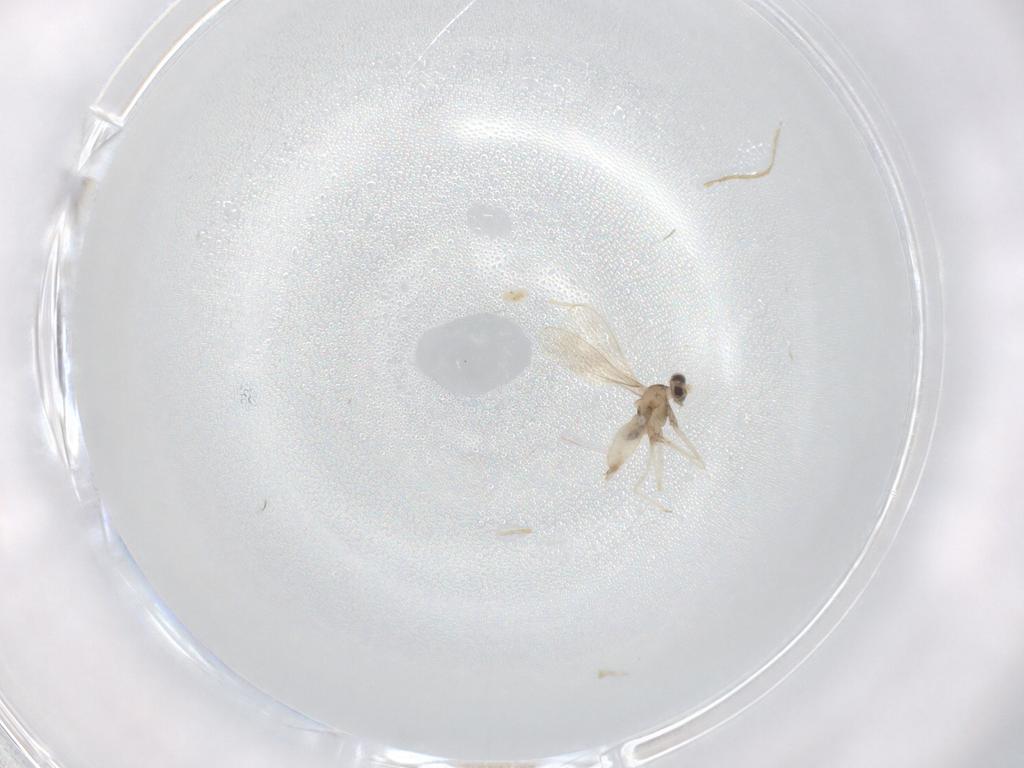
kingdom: Animalia
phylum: Arthropoda
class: Insecta
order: Diptera
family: Cecidomyiidae
